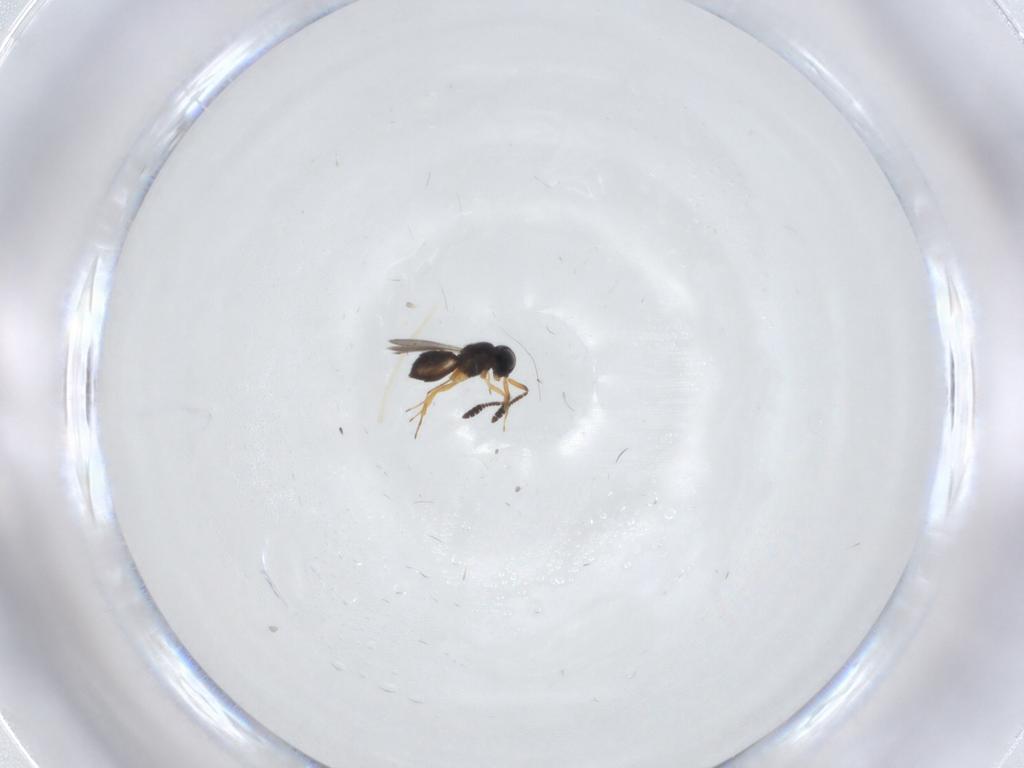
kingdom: Animalia
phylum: Arthropoda
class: Insecta
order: Hymenoptera
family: Scelionidae
